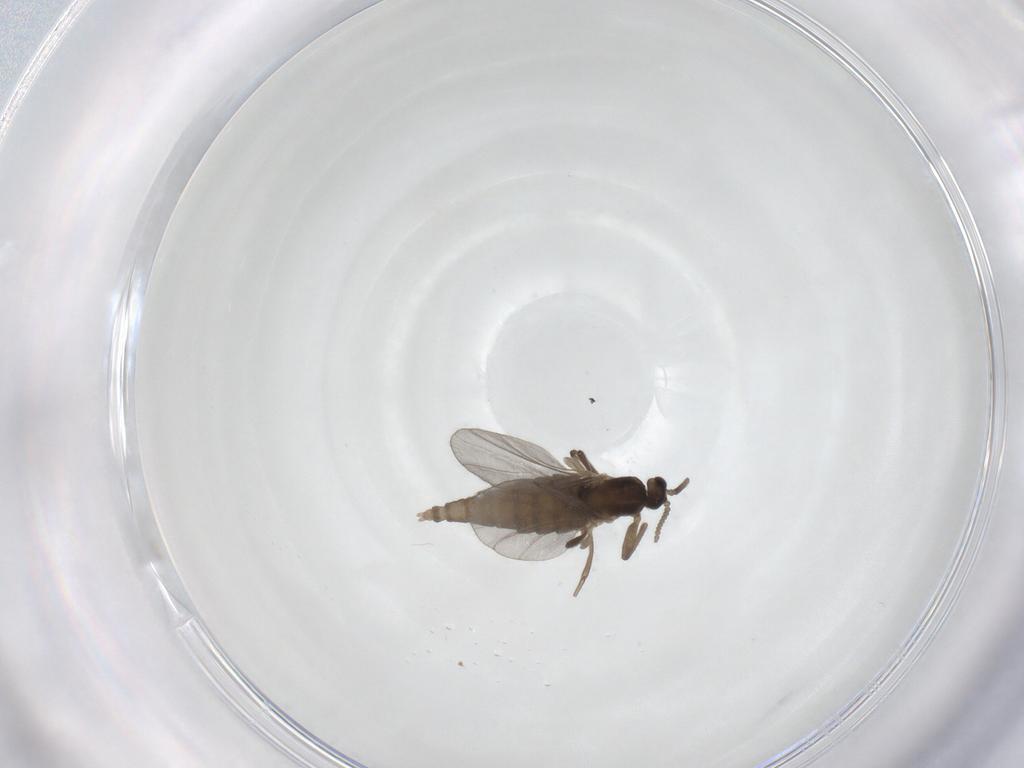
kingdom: Animalia
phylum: Arthropoda
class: Insecta
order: Diptera
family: Cecidomyiidae
